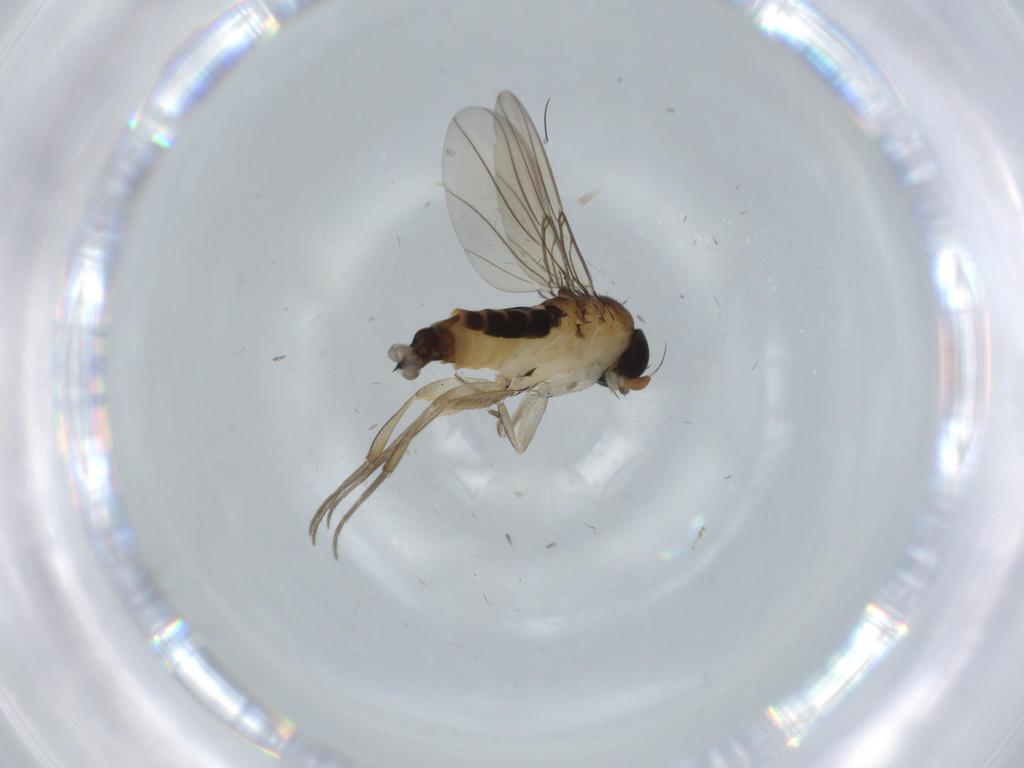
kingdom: Animalia
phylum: Arthropoda
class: Insecta
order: Diptera
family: Phoridae
